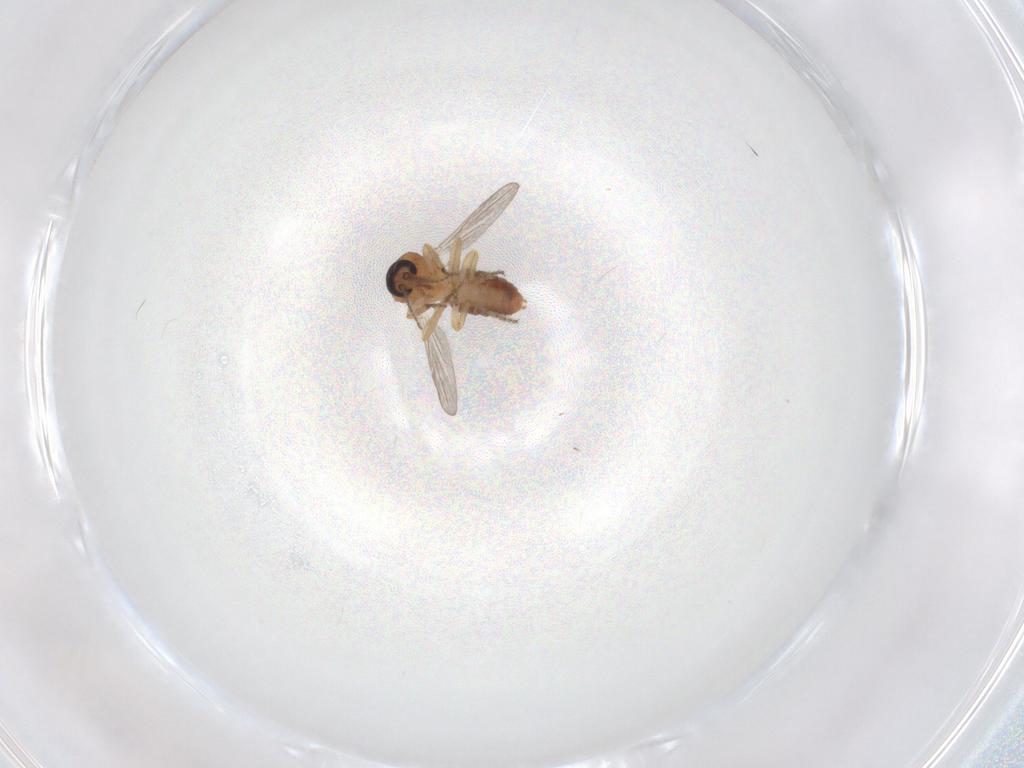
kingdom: Animalia
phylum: Arthropoda
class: Insecta
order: Diptera
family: Ceratopogonidae
